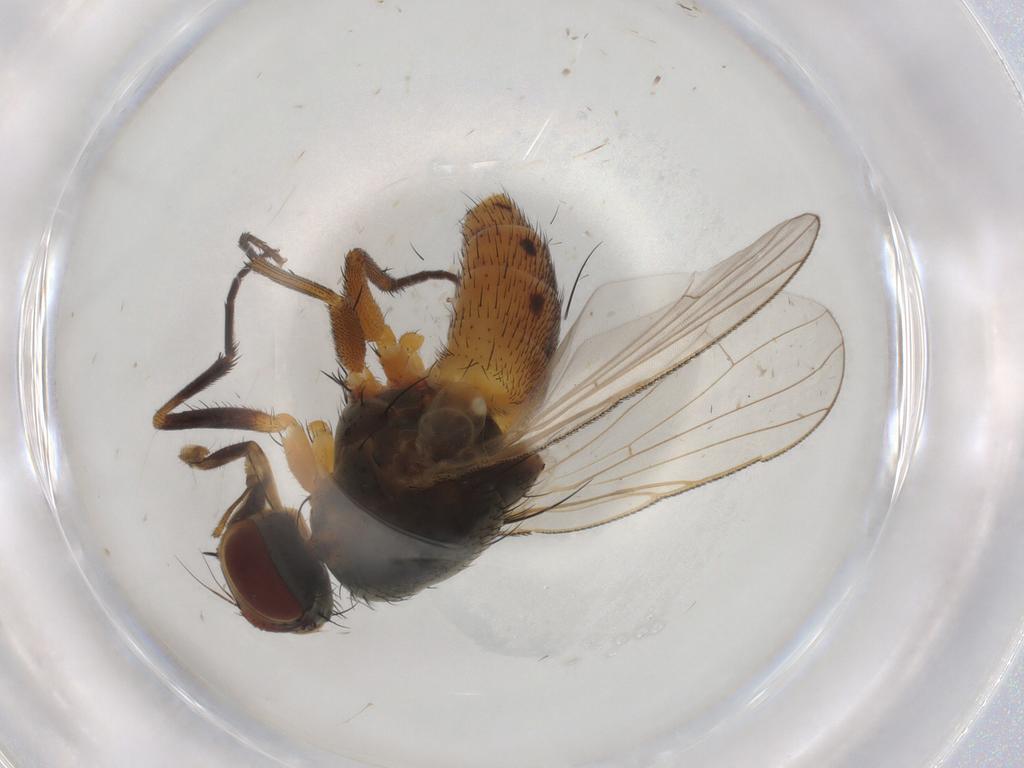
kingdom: Animalia
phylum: Arthropoda
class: Insecta
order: Diptera
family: Muscidae
